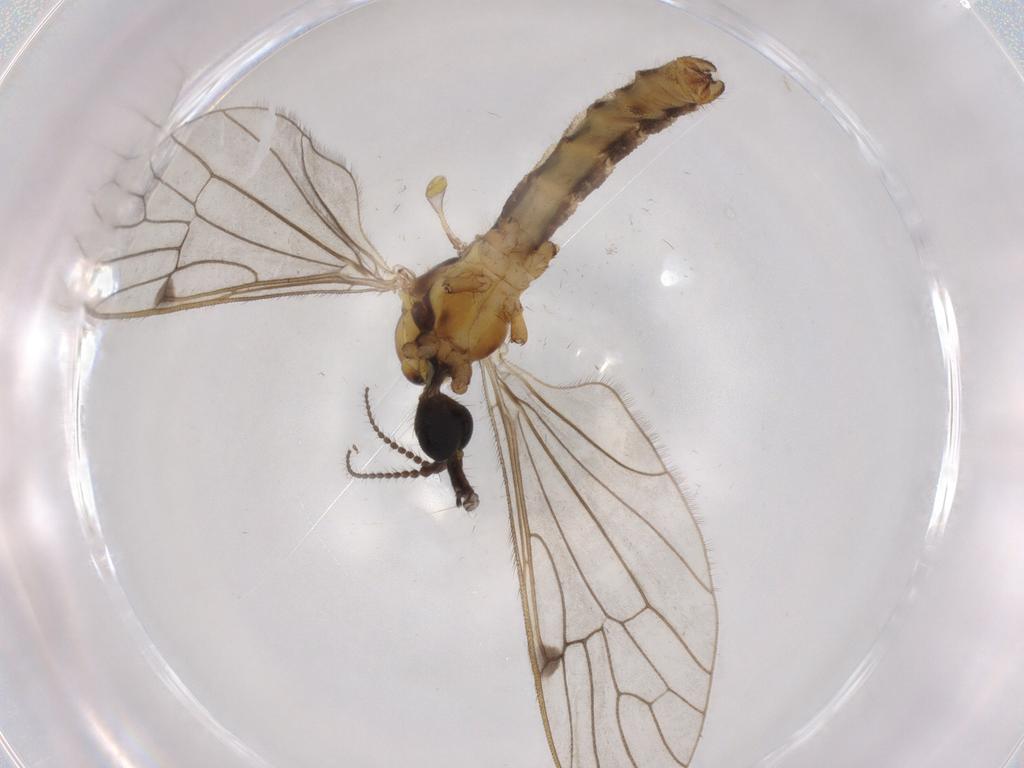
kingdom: Animalia
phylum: Arthropoda
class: Insecta
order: Diptera
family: Limoniidae
